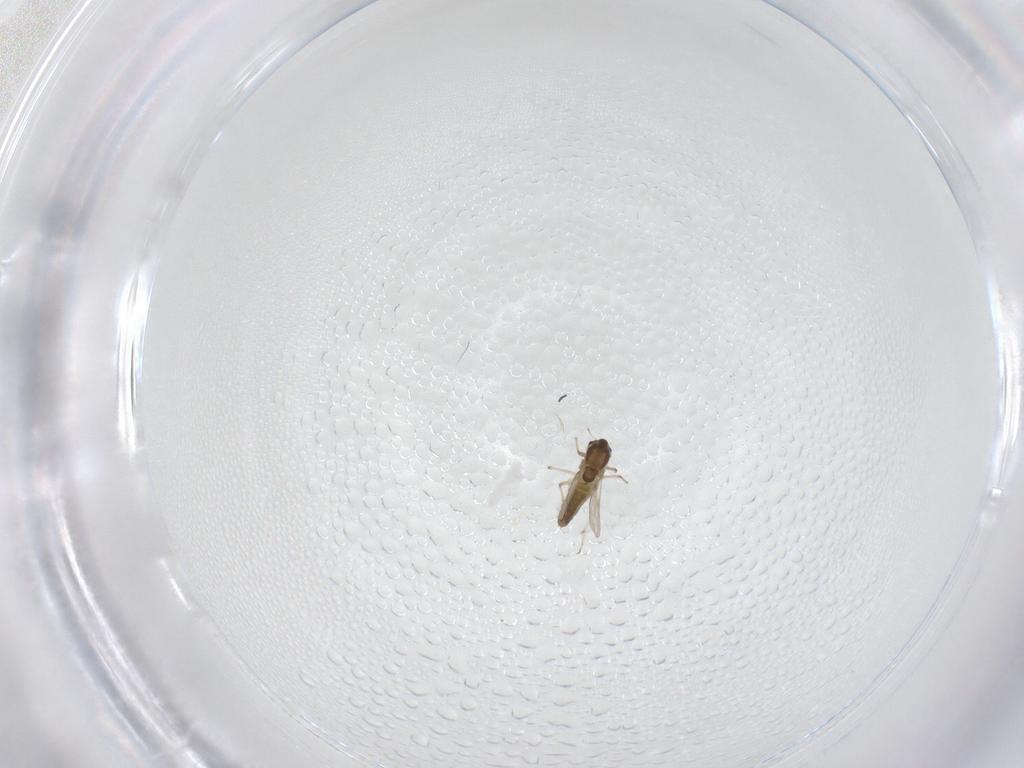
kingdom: Animalia
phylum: Arthropoda
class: Insecta
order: Diptera
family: Chironomidae
